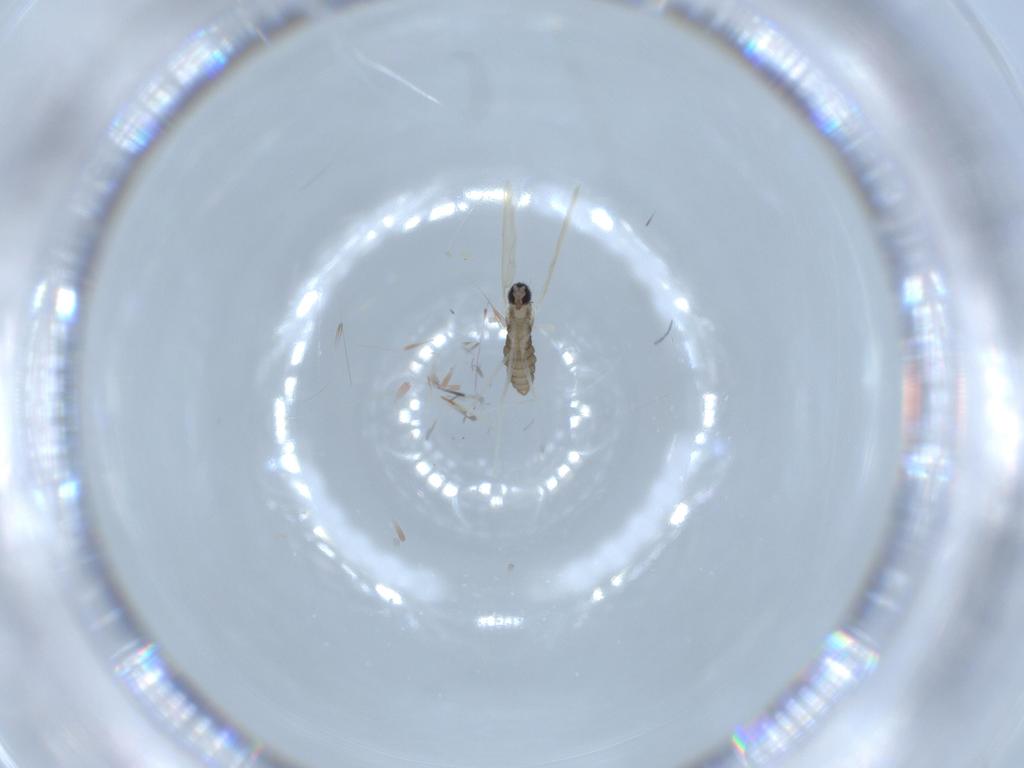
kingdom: Animalia
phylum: Arthropoda
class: Insecta
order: Diptera
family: Cecidomyiidae
